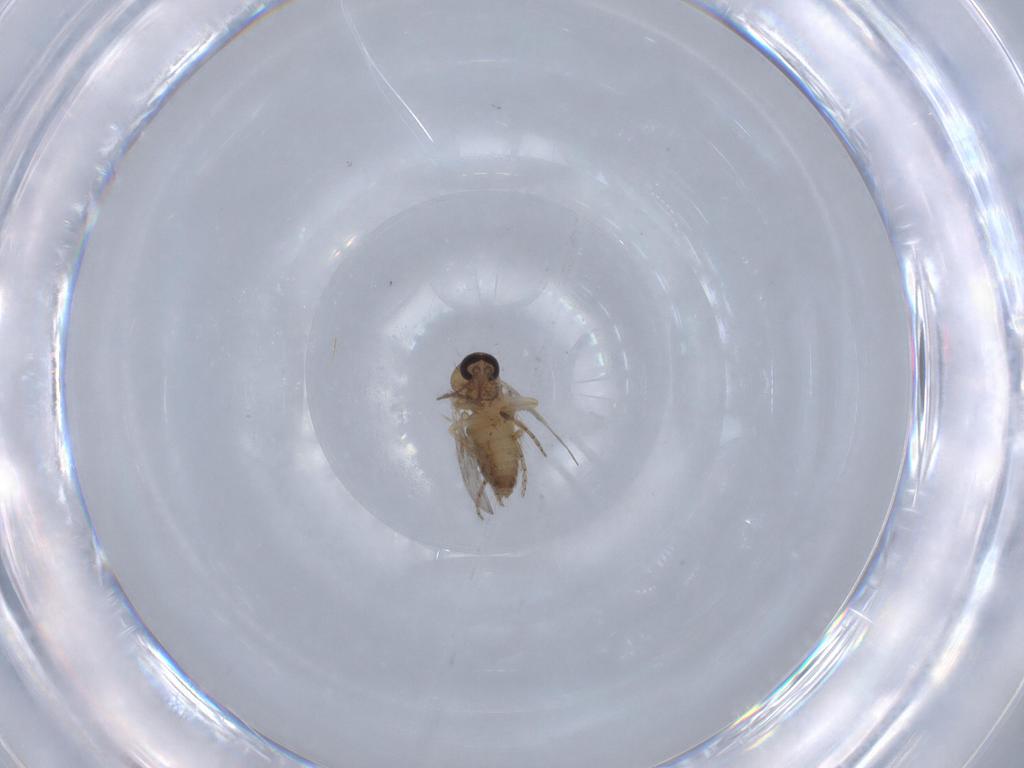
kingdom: Animalia
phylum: Arthropoda
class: Insecta
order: Diptera
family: Ceratopogonidae
